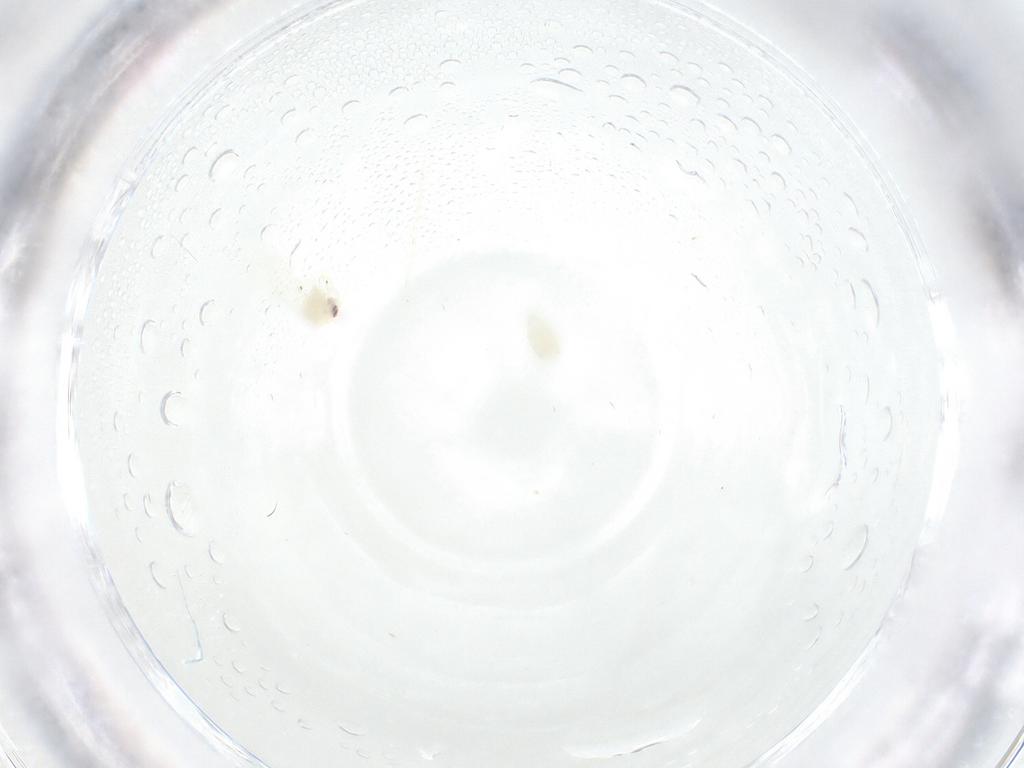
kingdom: Animalia
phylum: Arthropoda
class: Insecta
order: Hemiptera
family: Aleyrodidae
